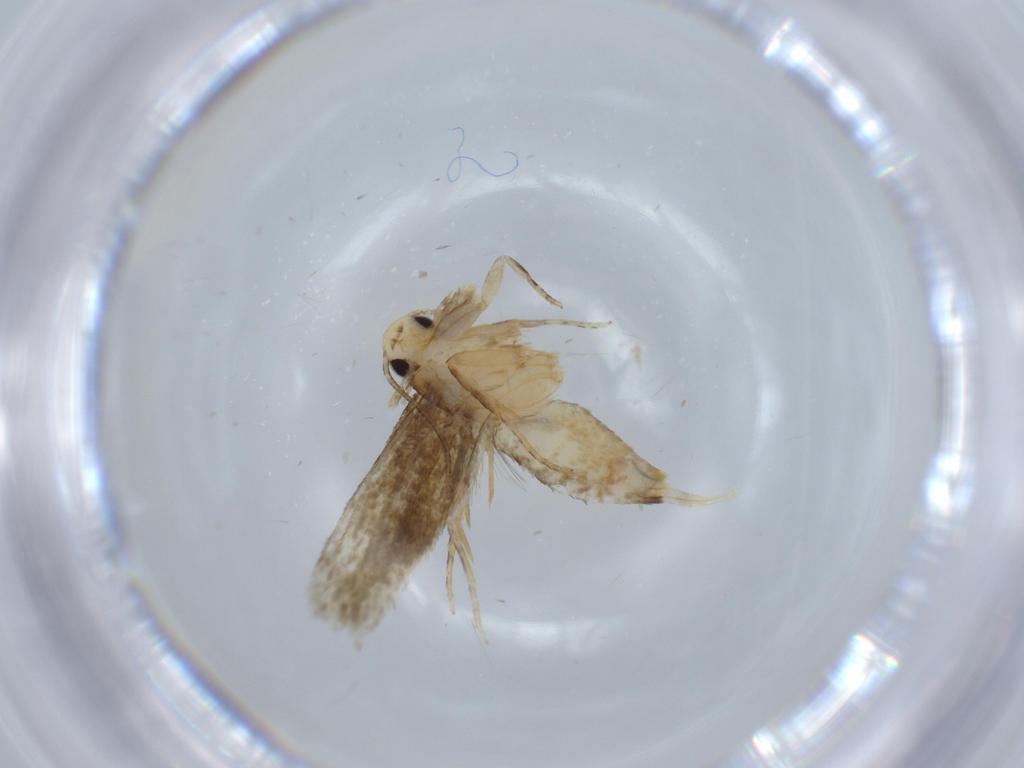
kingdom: Animalia
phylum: Arthropoda
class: Insecta
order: Lepidoptera
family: Tineidae
